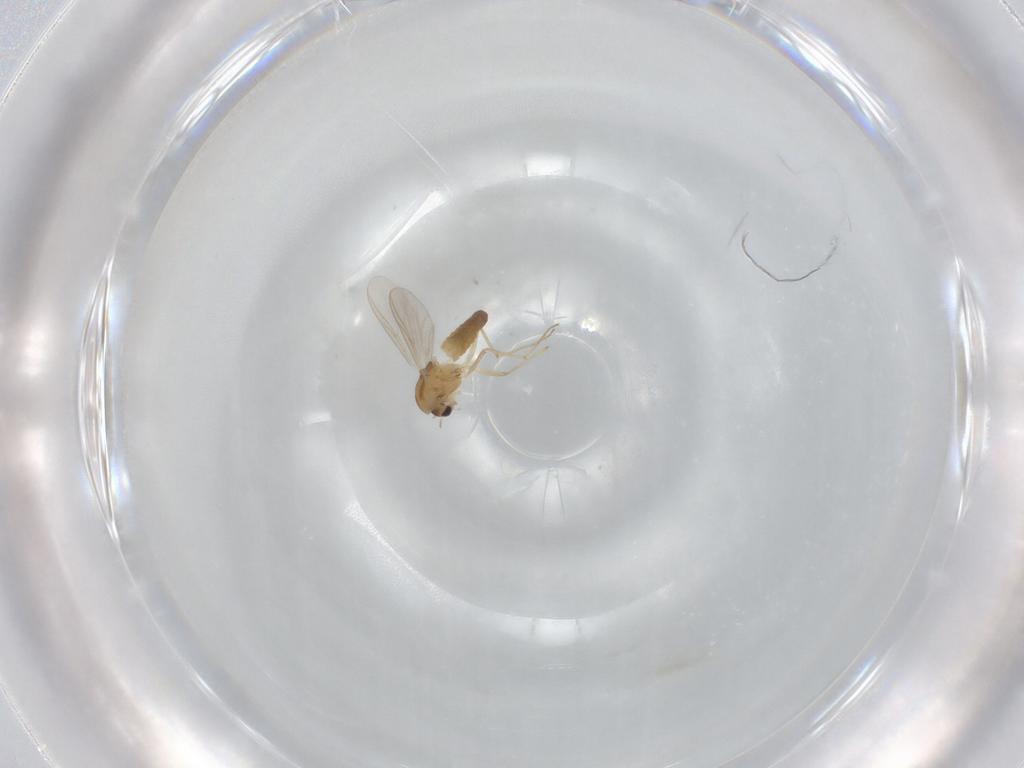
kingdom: Animalia
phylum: Arthropoda
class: Insecta
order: Diptera
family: Chironomidae
